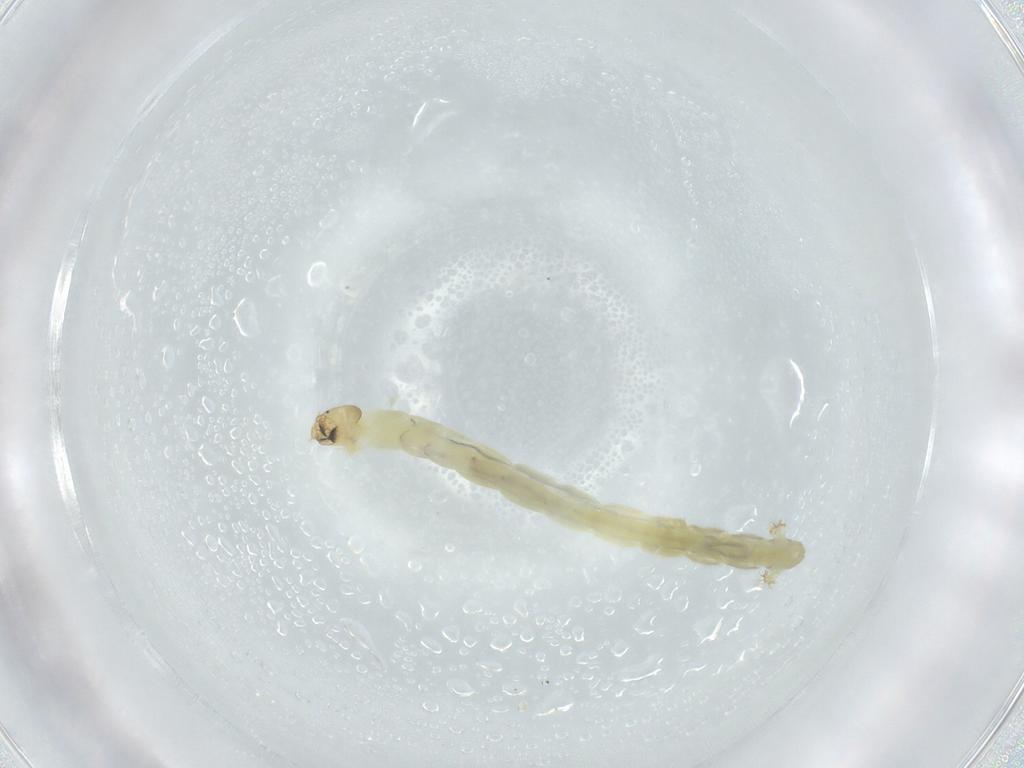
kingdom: Animalia
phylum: Arthropoda
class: Insecta
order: Diptera
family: Chironomidae
